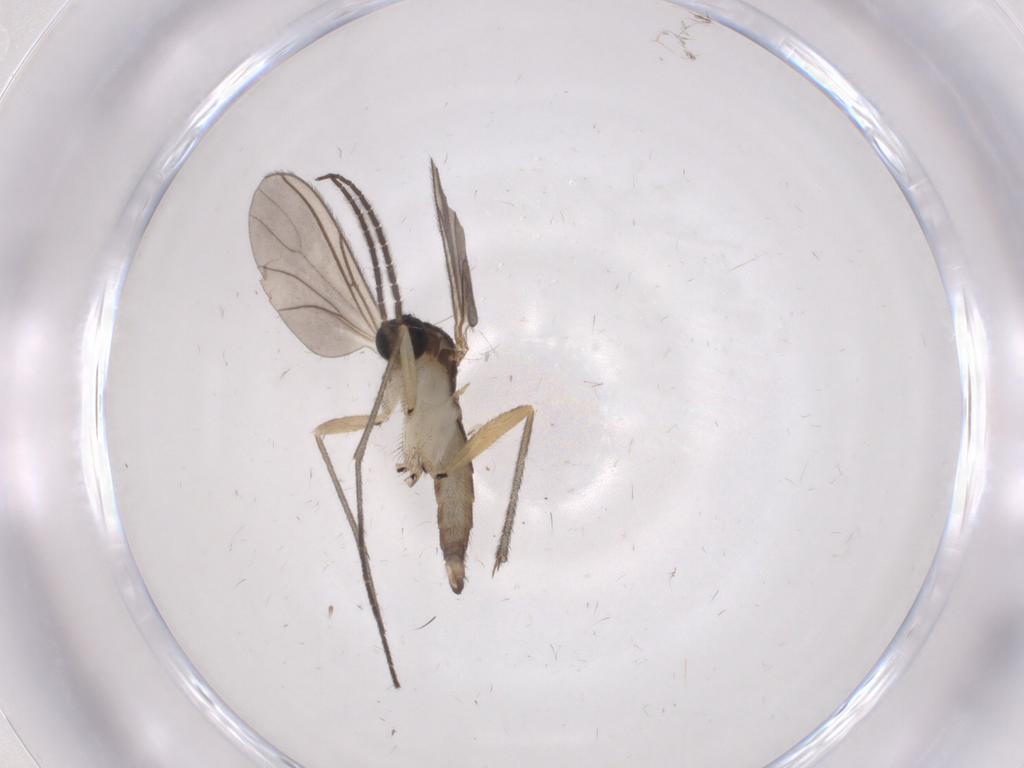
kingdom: Animalia
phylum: Arthropoda
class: Insecta
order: Diptera
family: Sciaridae
